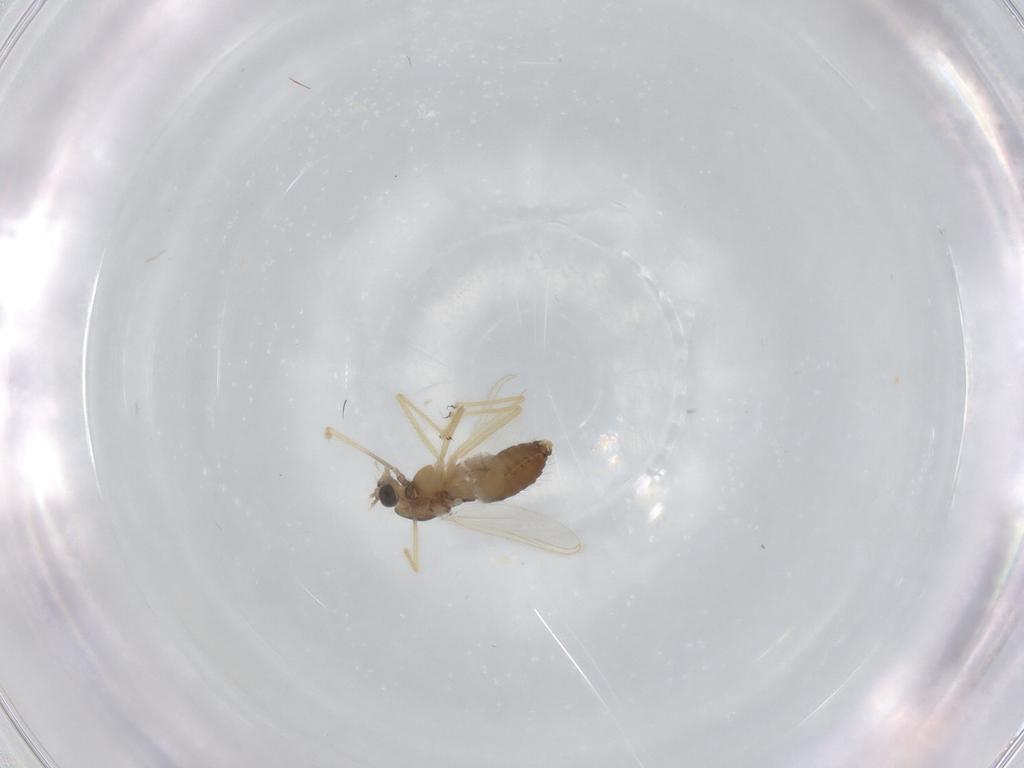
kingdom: Animalia
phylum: Arthropoda
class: Insecta
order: Diptera
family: Chironomidae
